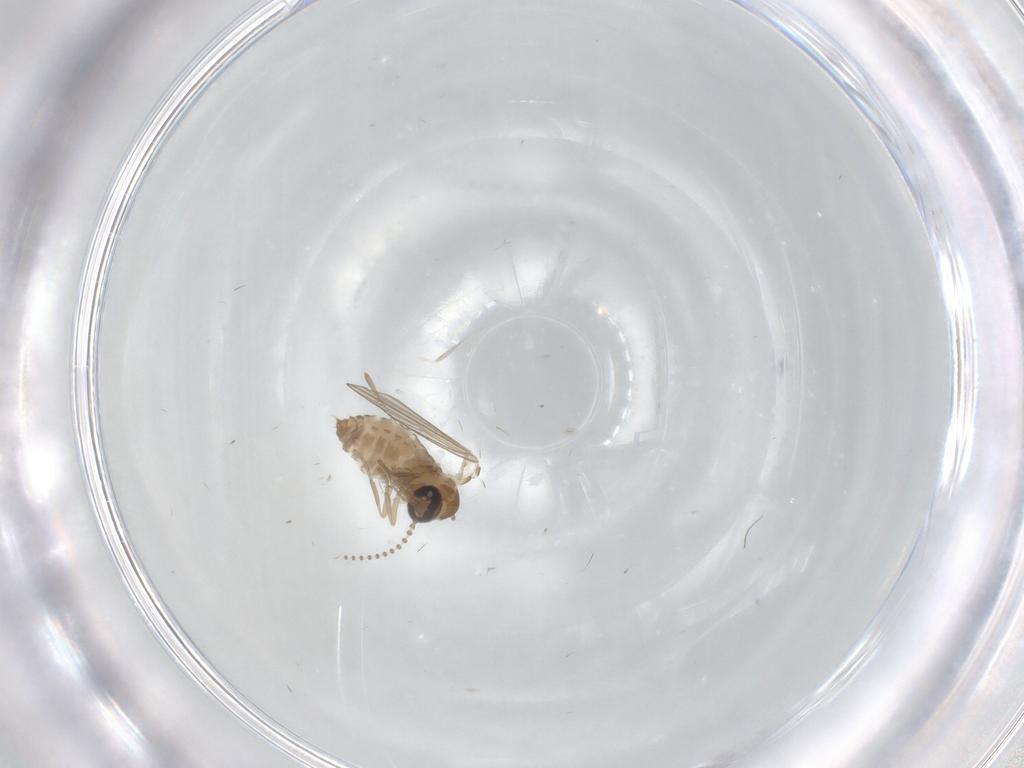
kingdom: Animalia
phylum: Arthropoda
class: Insecta
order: Diptera
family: Psychodidae
